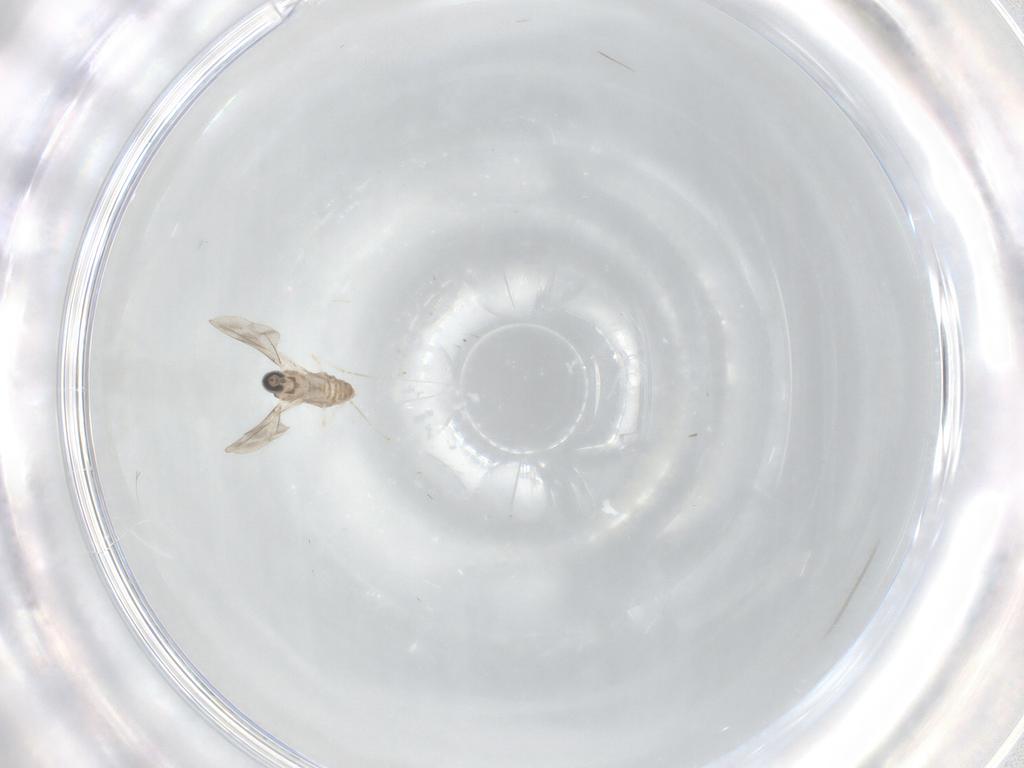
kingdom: Animalia
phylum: Arthropoda
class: Insecta
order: Diptera
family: Cecidomyiidae
